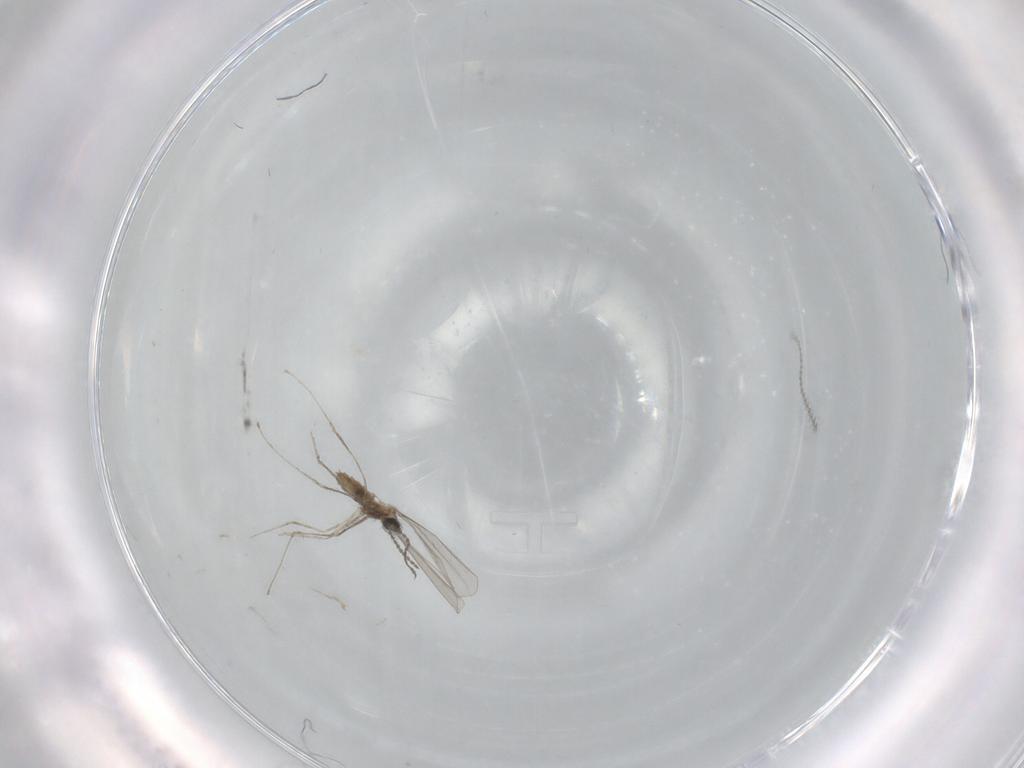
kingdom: Animalia
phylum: Arthropoda
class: Insecta
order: Diptera
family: Cecidomyiidae
